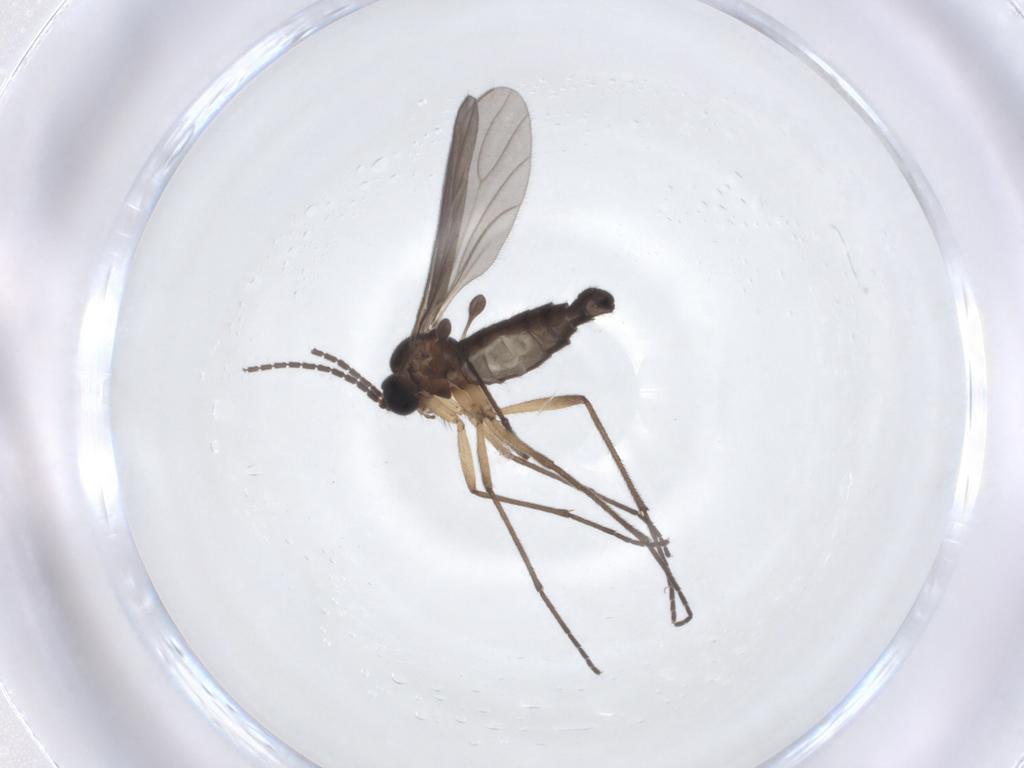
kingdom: Animalia
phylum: Arthropoda
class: Insecta
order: Diptera
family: Sciaridae
